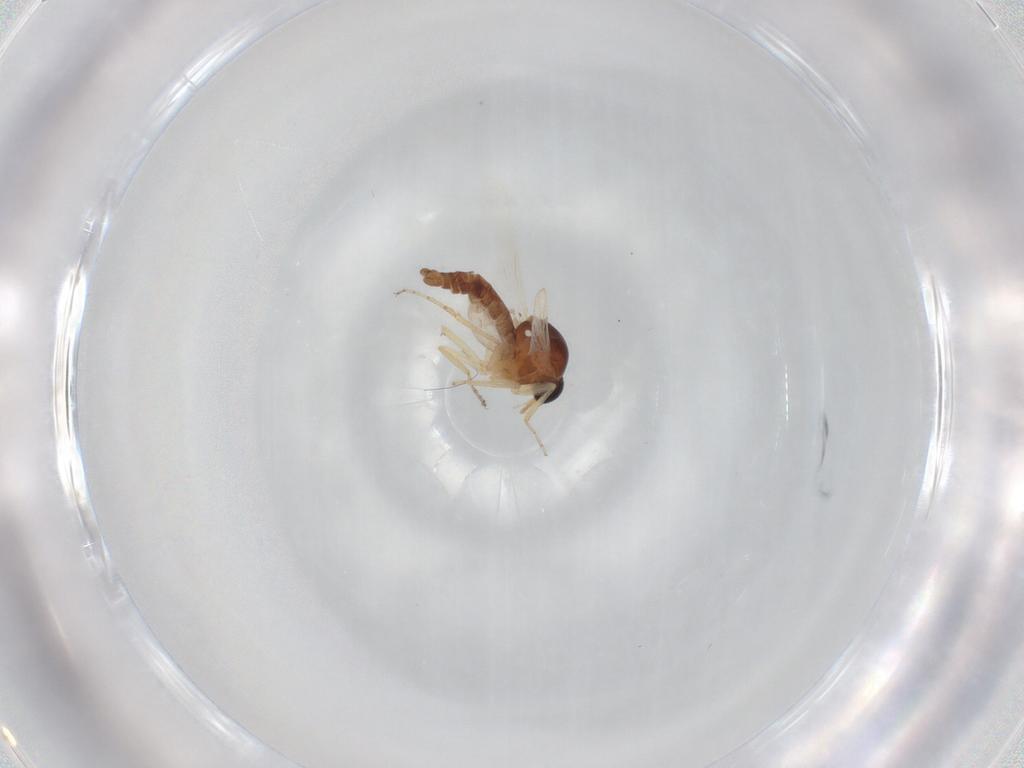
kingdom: Animalia
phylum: Arthropoda
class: Insecta
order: Diptera
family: Ceratopogonidae
